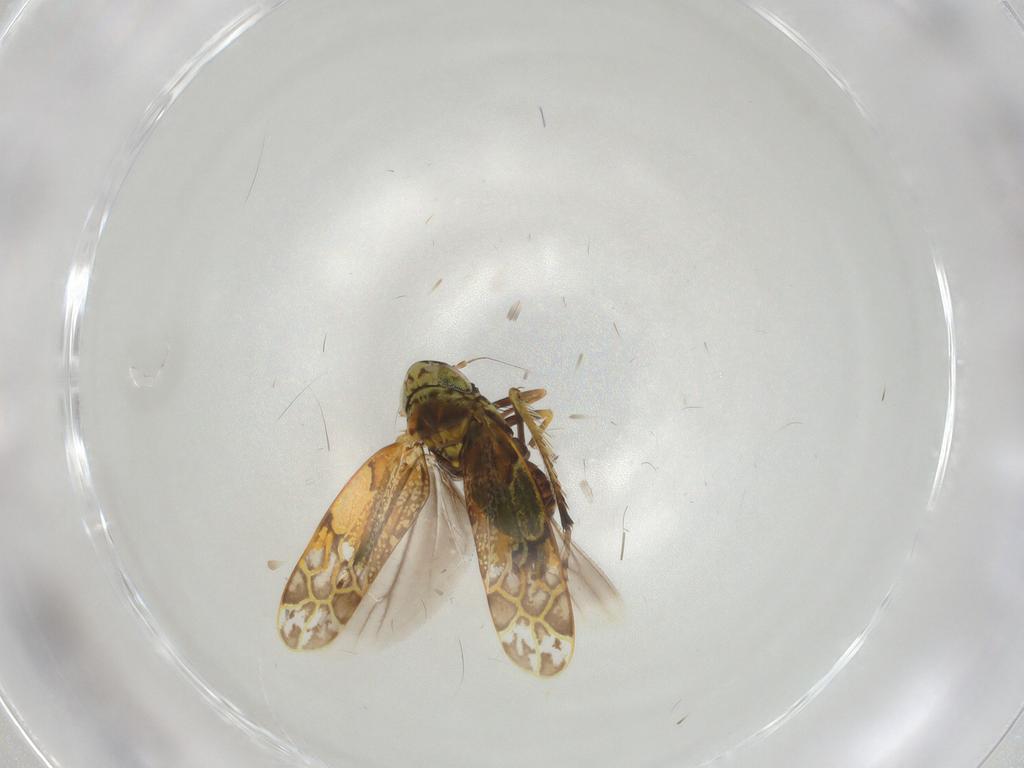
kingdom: Animalia
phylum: Arthropoda
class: Insecta
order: Hemiptera
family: Cicadellidae
